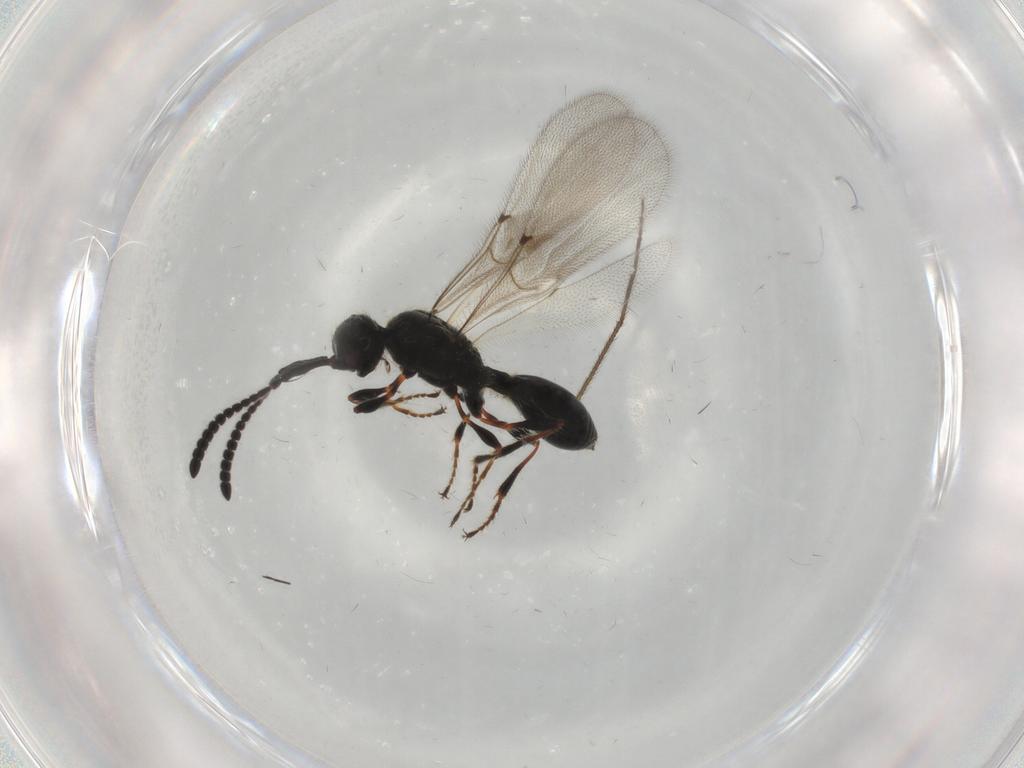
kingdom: Animalia
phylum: Arthropoda
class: Insecta
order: Hymenoptera
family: Diapriidae
